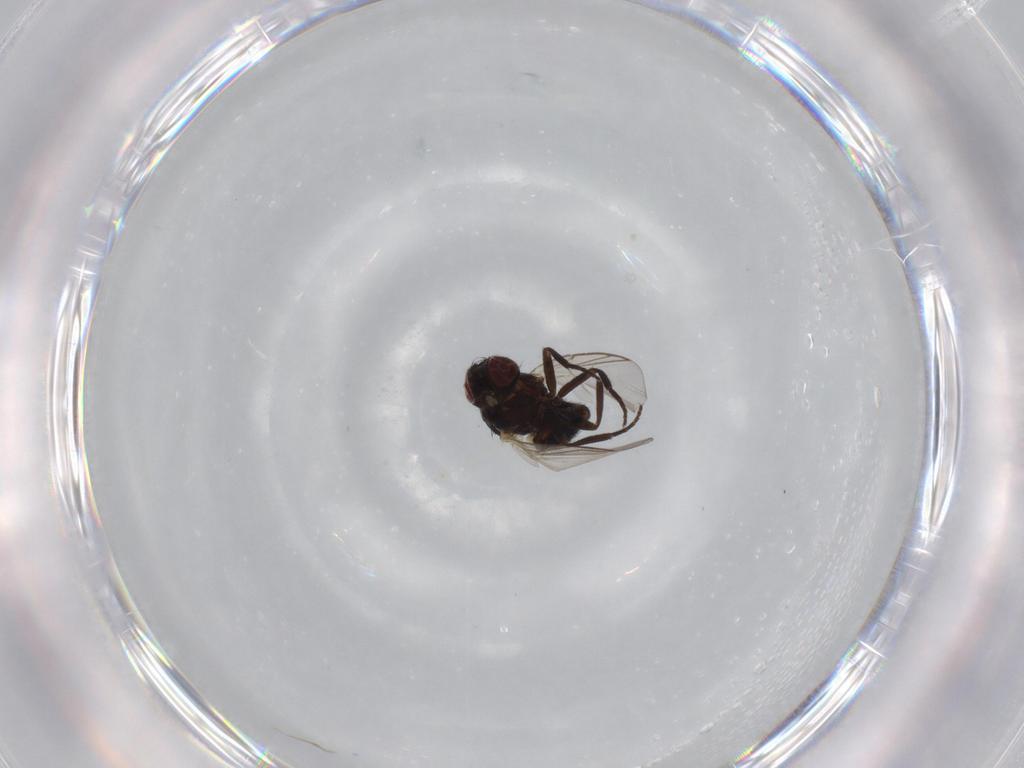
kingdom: Animalia
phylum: Arthropoda
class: Insecta
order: Diptera
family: Cecidomyiidae
